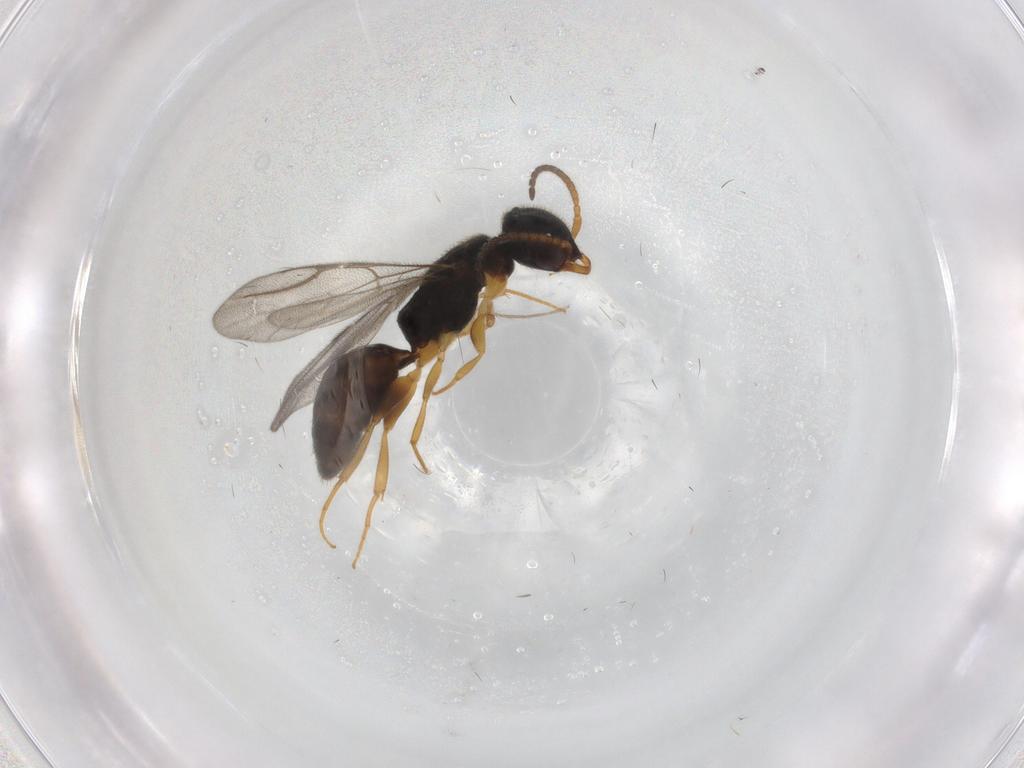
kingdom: Animalia
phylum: Arthropoda
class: Insecta
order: Hymenoptera
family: Bethylidae
